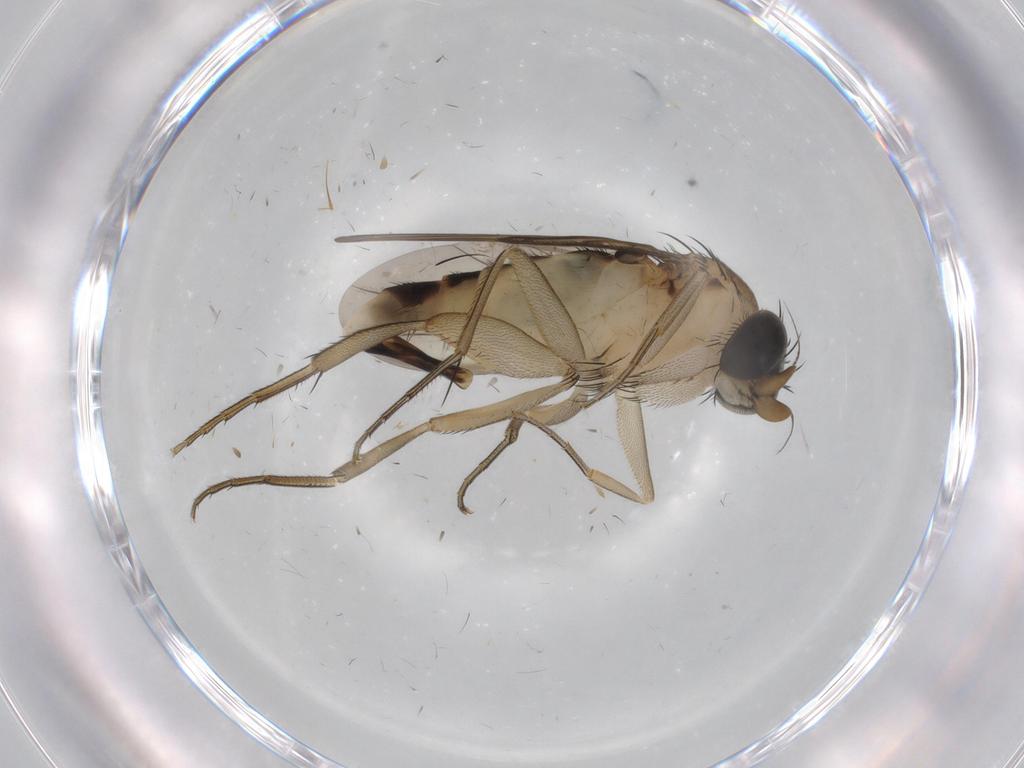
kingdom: Animalia
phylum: Arthropoda
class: Insecta
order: Diptera
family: Phoridae
